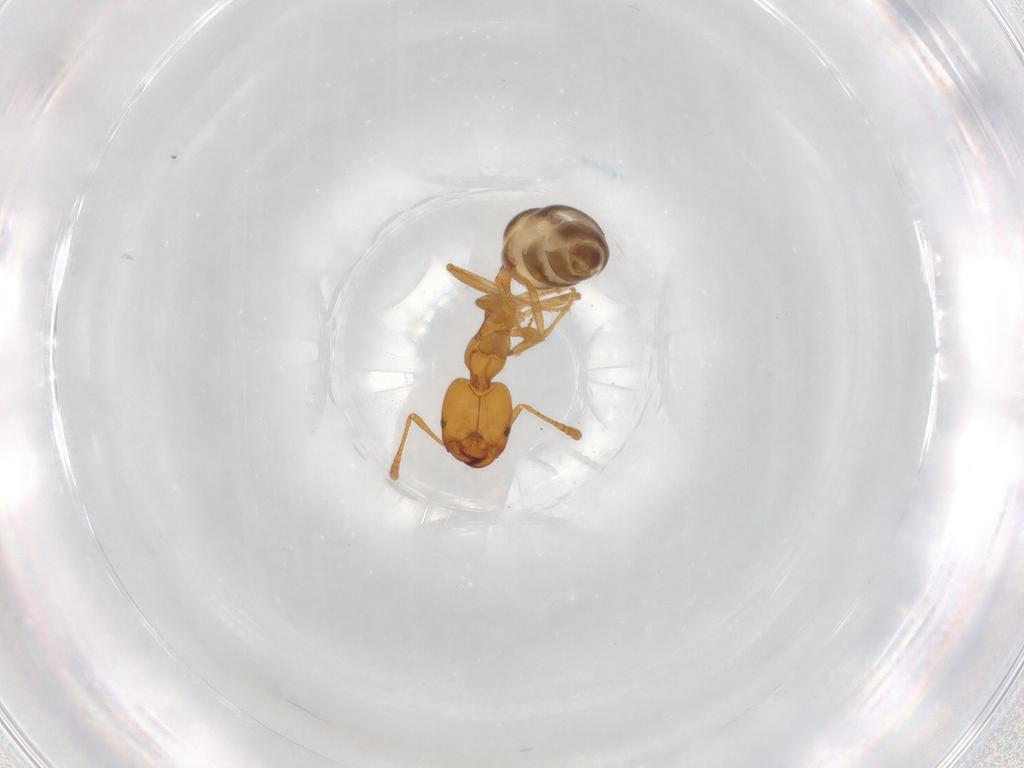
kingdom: Animalia
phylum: Arthropoda
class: Insecta
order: Hymenoptera
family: Formicidae
